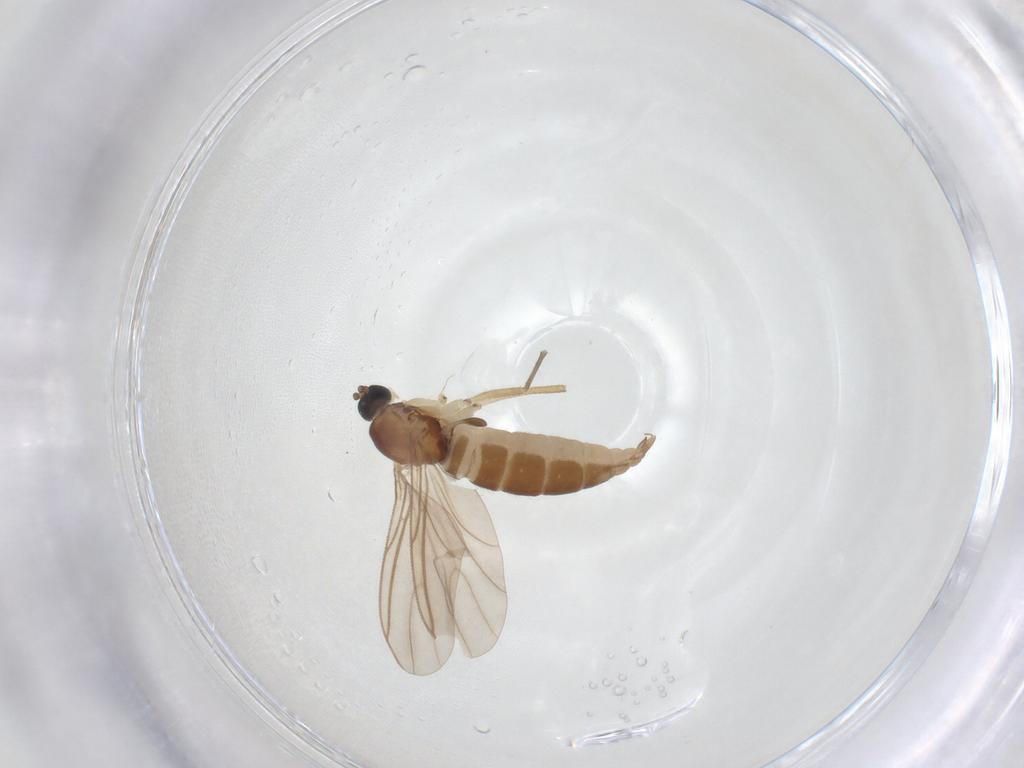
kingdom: Animalia
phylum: Arthropoda
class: Insecta
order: Diptera
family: Sciaridae
